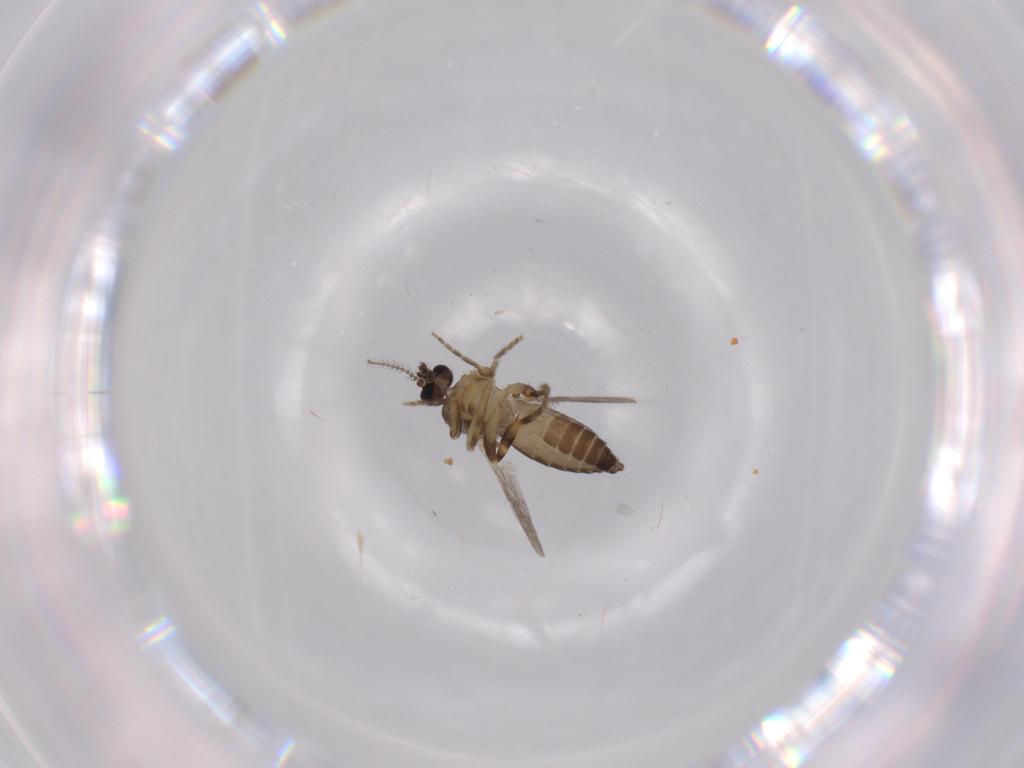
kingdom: Animalia
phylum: Arthropoda
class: Insecta
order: Diptera
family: Ceratopogonidae
